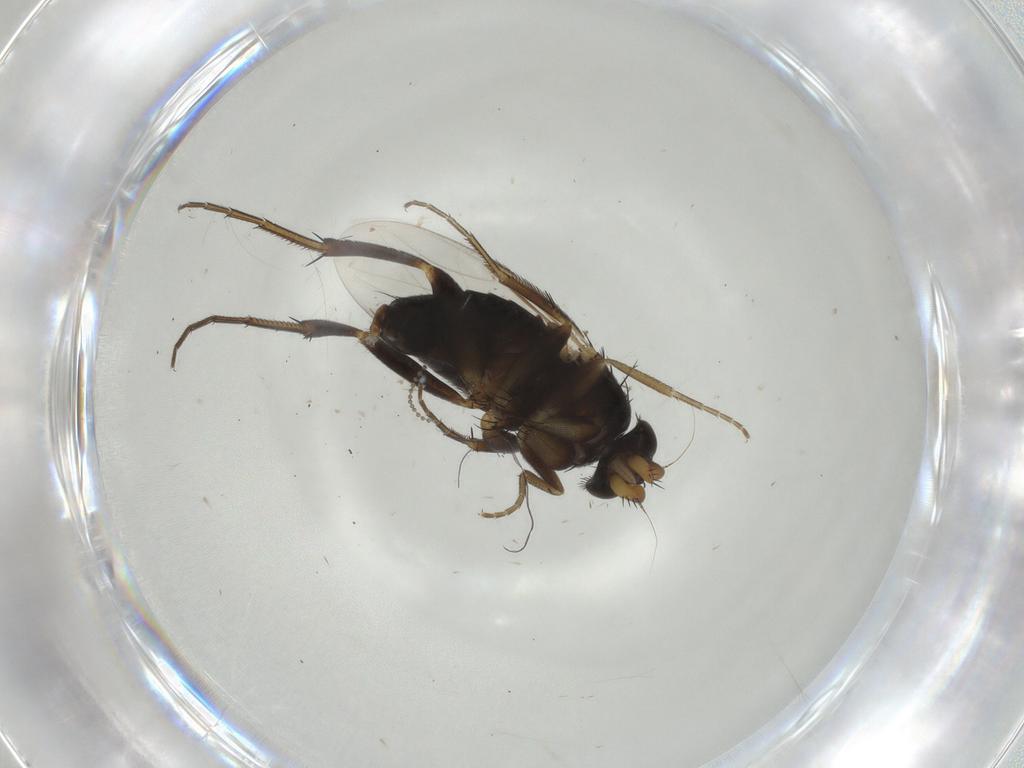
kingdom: Animalia
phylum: Arthropoda
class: Insecta
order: Diptera
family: Phoridae
